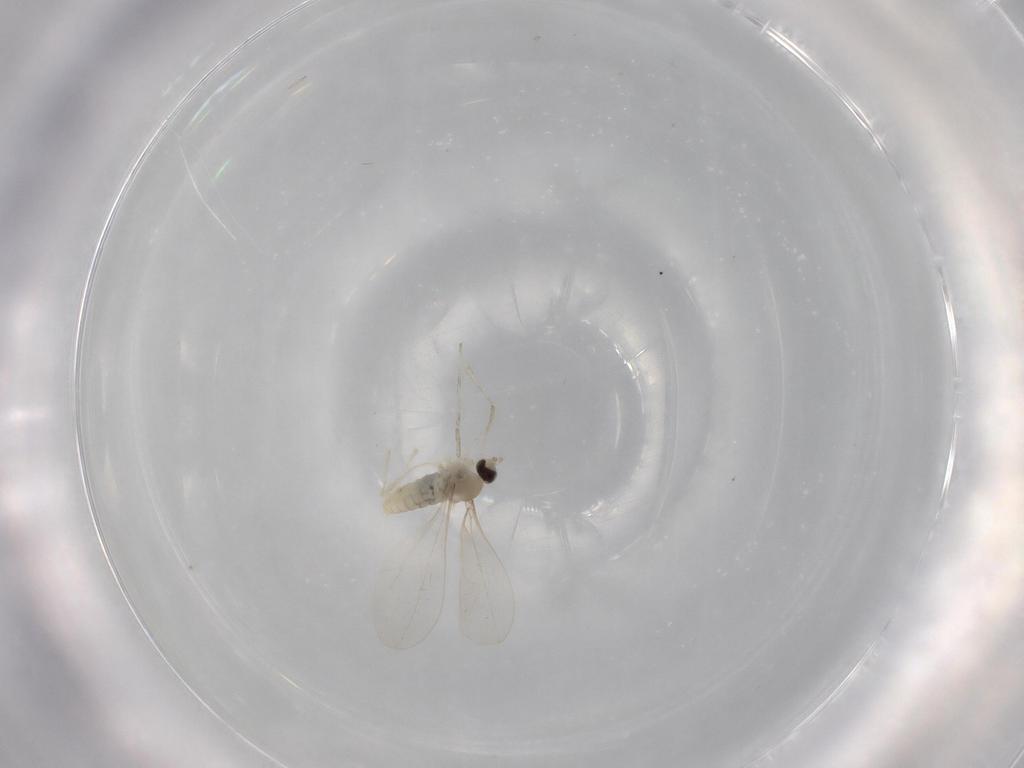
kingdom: Animalia
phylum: Arthropoda
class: Insecta
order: Diptera
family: Cecidomyiidae
